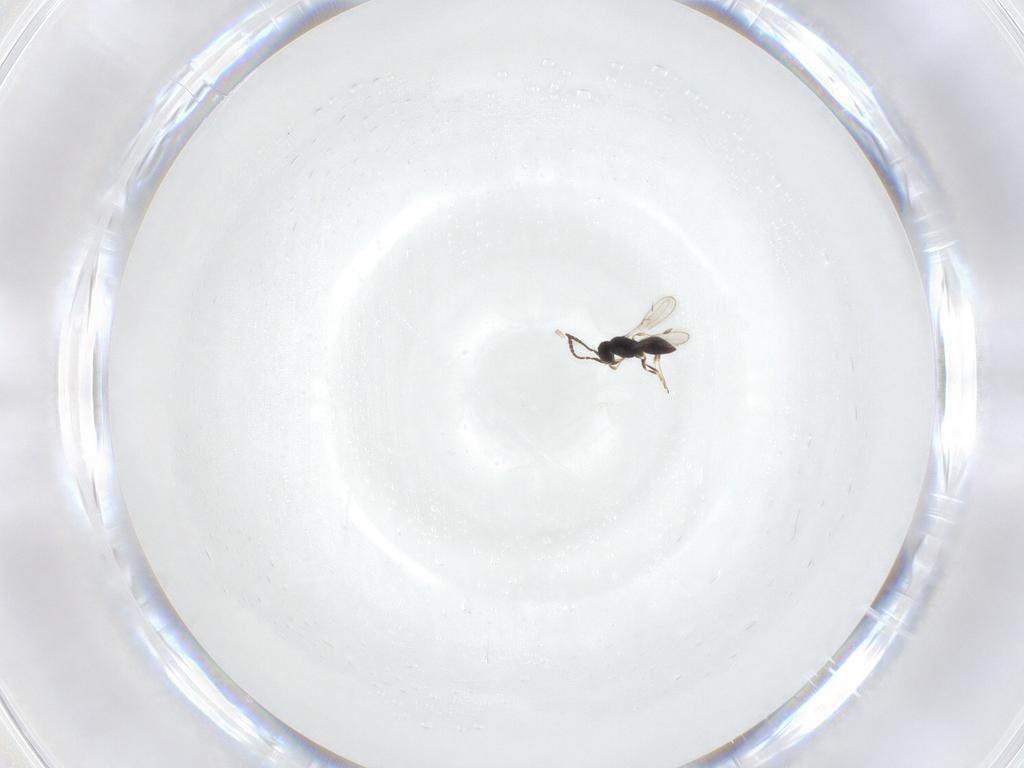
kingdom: Animalia
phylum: Arthropoda
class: Insecta
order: Hymenoptera
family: Scelionidae
